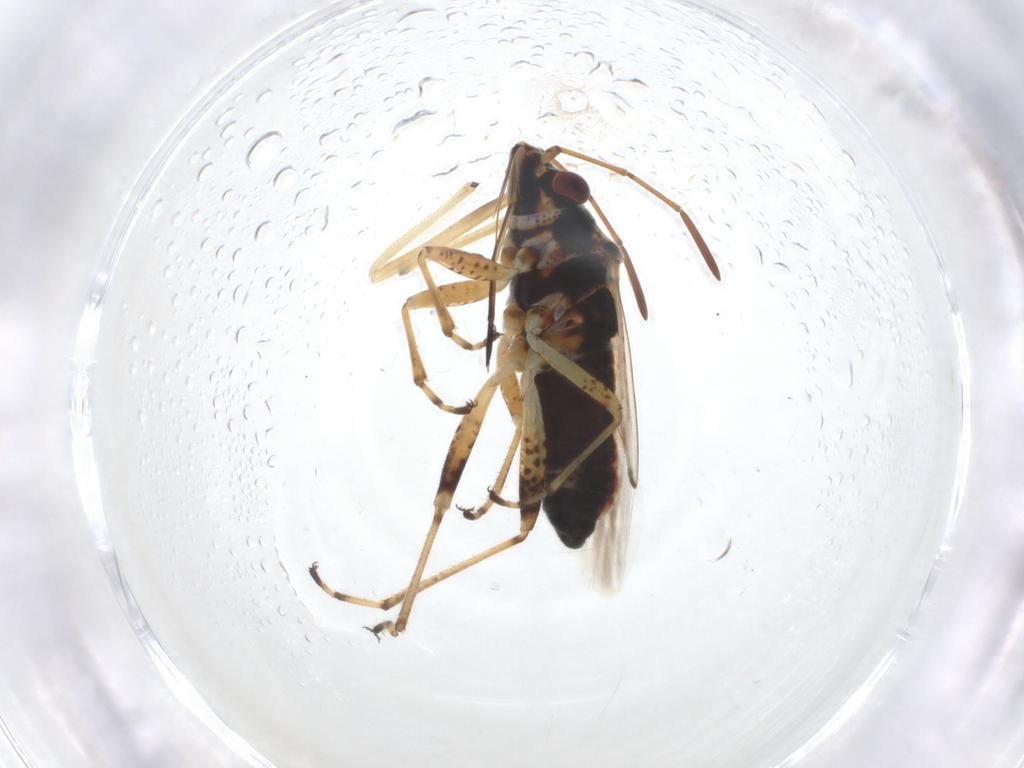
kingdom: Animalia
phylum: Arthropoda
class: Insecta
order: Hemiptera
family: Lygaeidae
